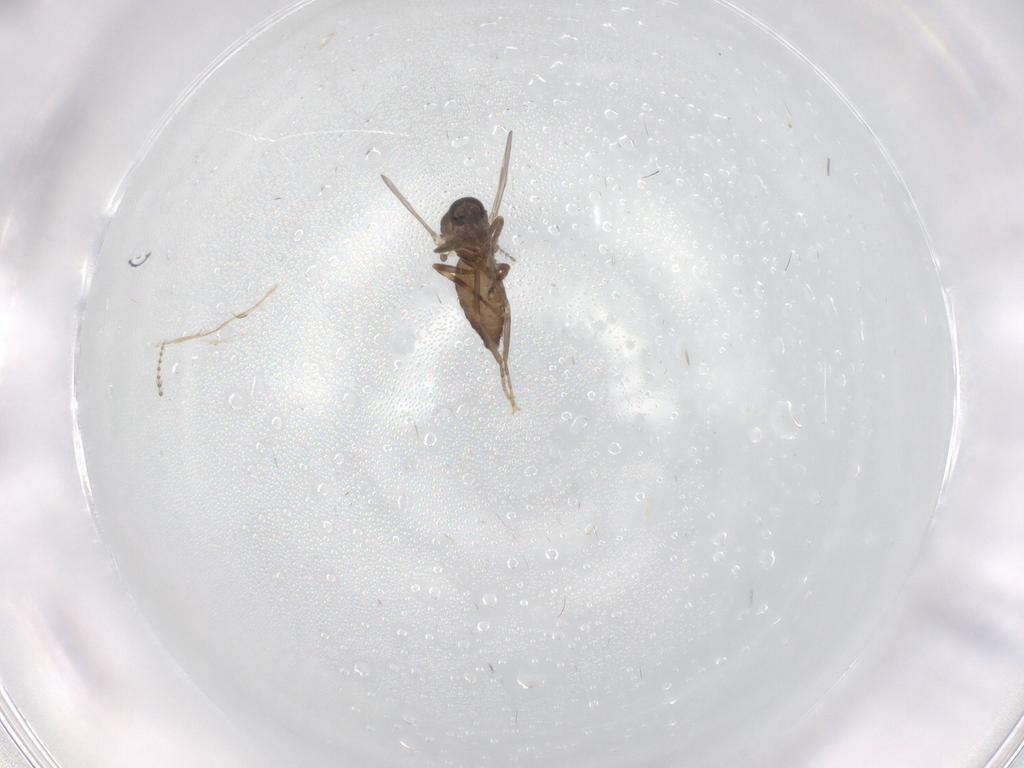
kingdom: Animalia
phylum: Arthropoda
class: Insecta
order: Diptera
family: Ceratopogonidae
